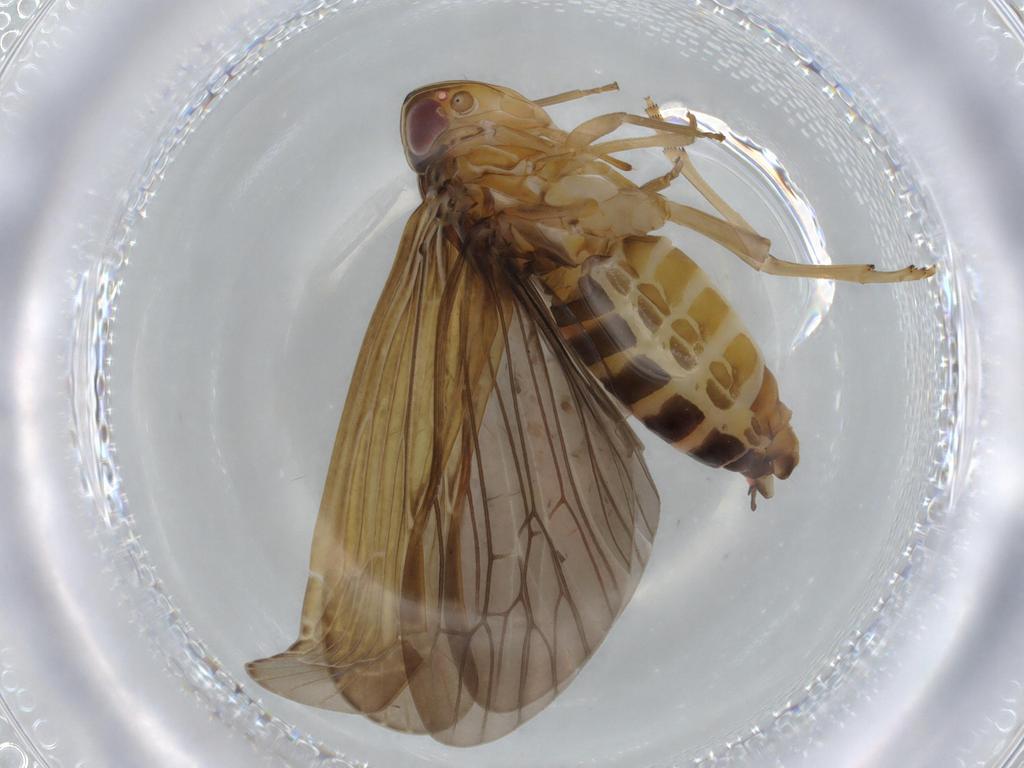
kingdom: Animalia
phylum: Arthropoda
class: Insecta
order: Hemiptera
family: Achilidae
